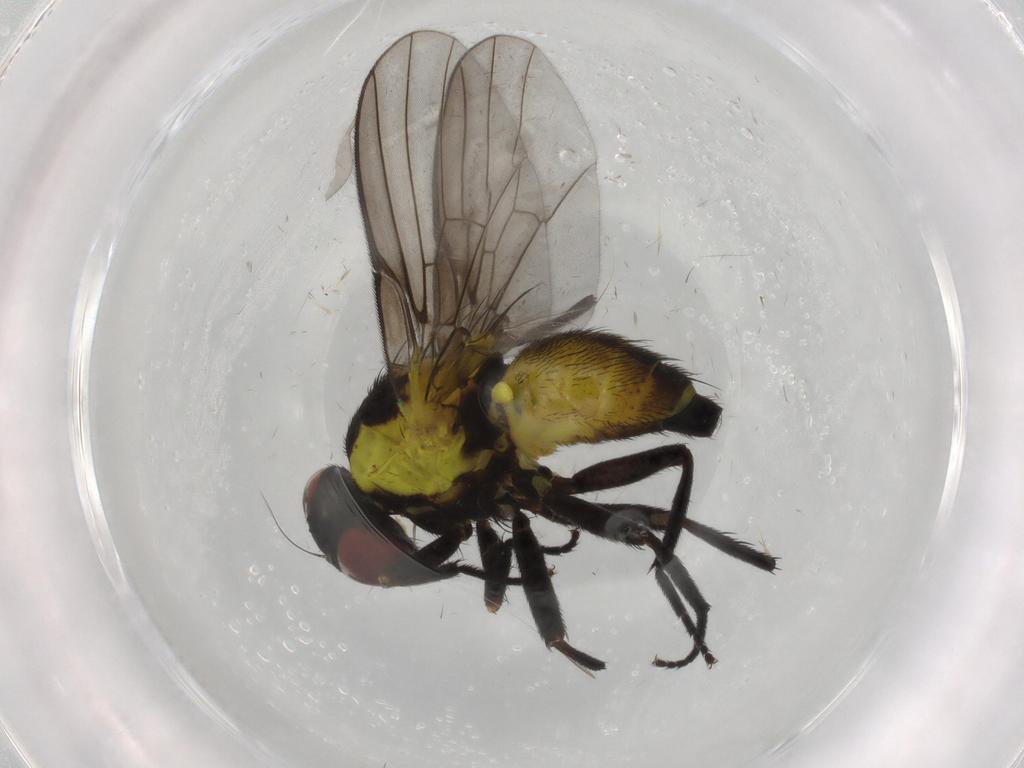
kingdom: Animalia
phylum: Arthropoda
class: Insecta
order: Diptera
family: Agromyzidae
